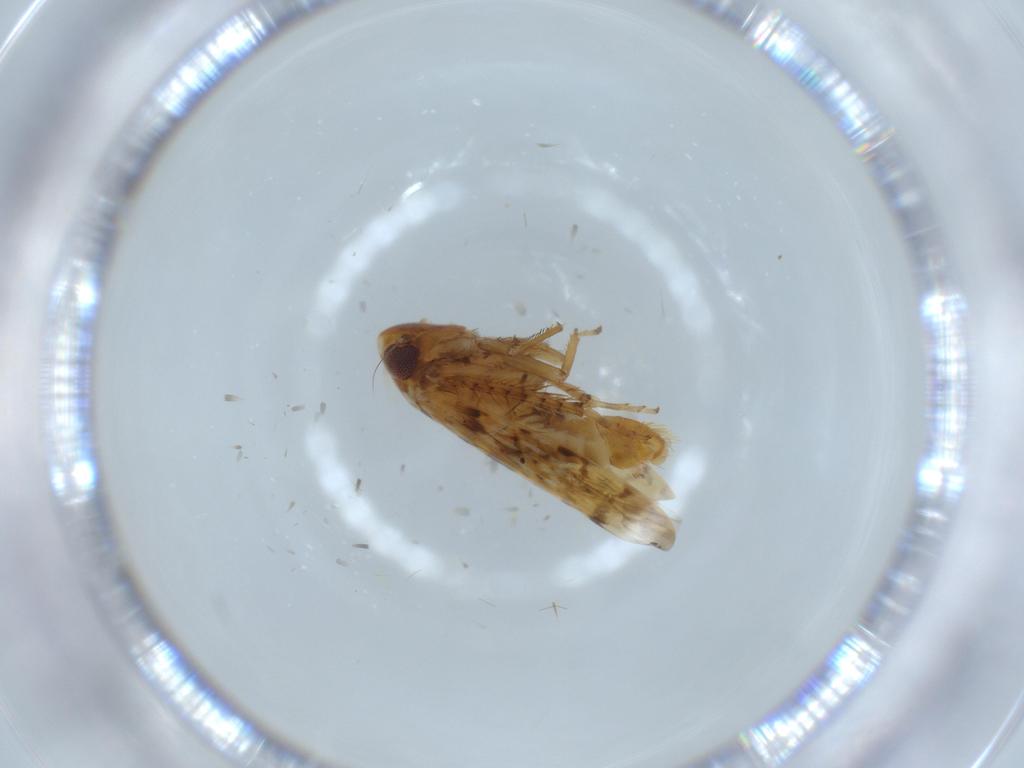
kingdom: Animalia
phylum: Arthropoda
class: Insecta
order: Hemiptera
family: Cicadellidae
